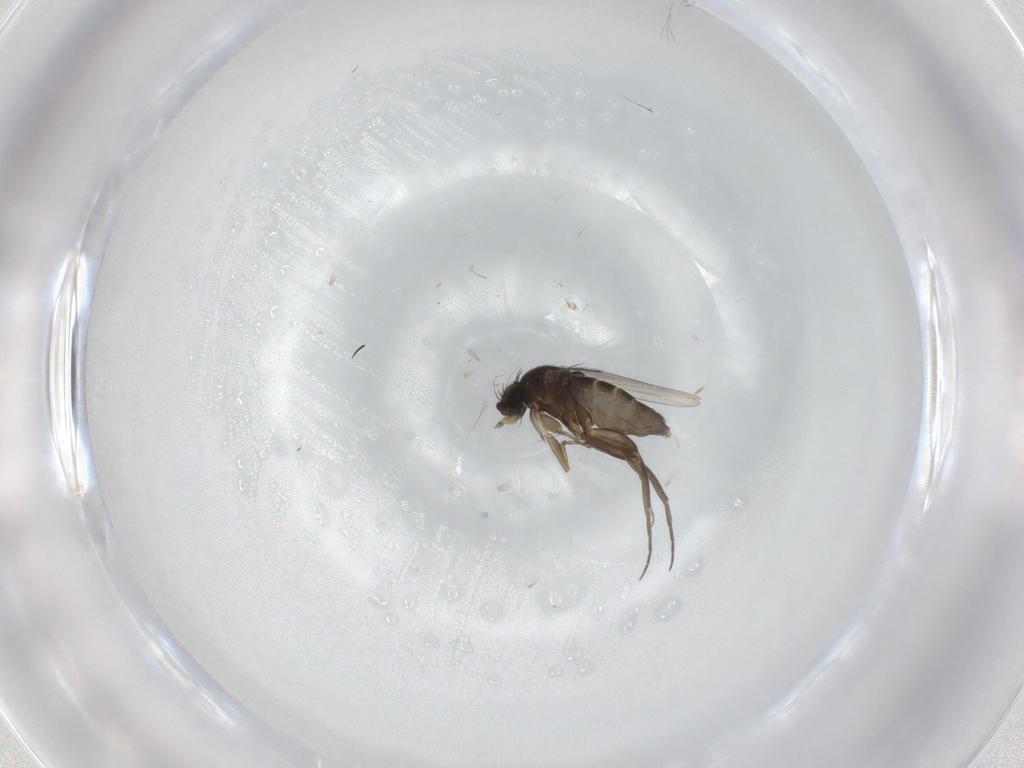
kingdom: Animalia
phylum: Arthropoda
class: Insecta
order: Diptera
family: Phoridae
